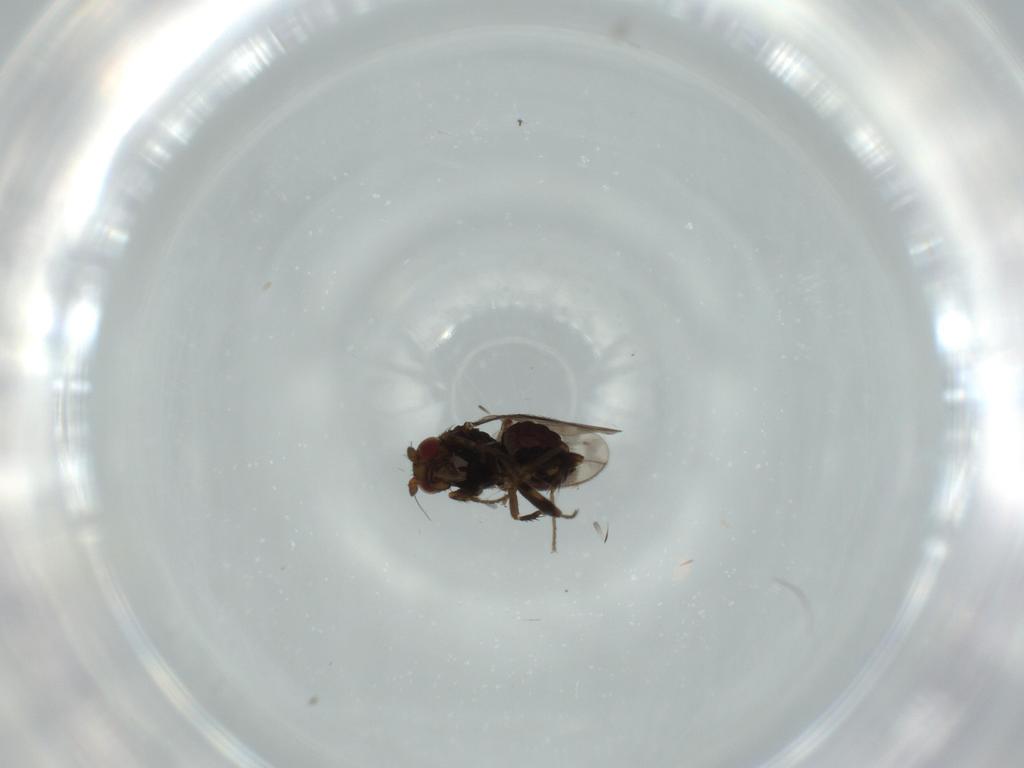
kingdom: Animalia
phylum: Arthropoda
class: Insecta
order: Diptera
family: Sphaeroceridae
